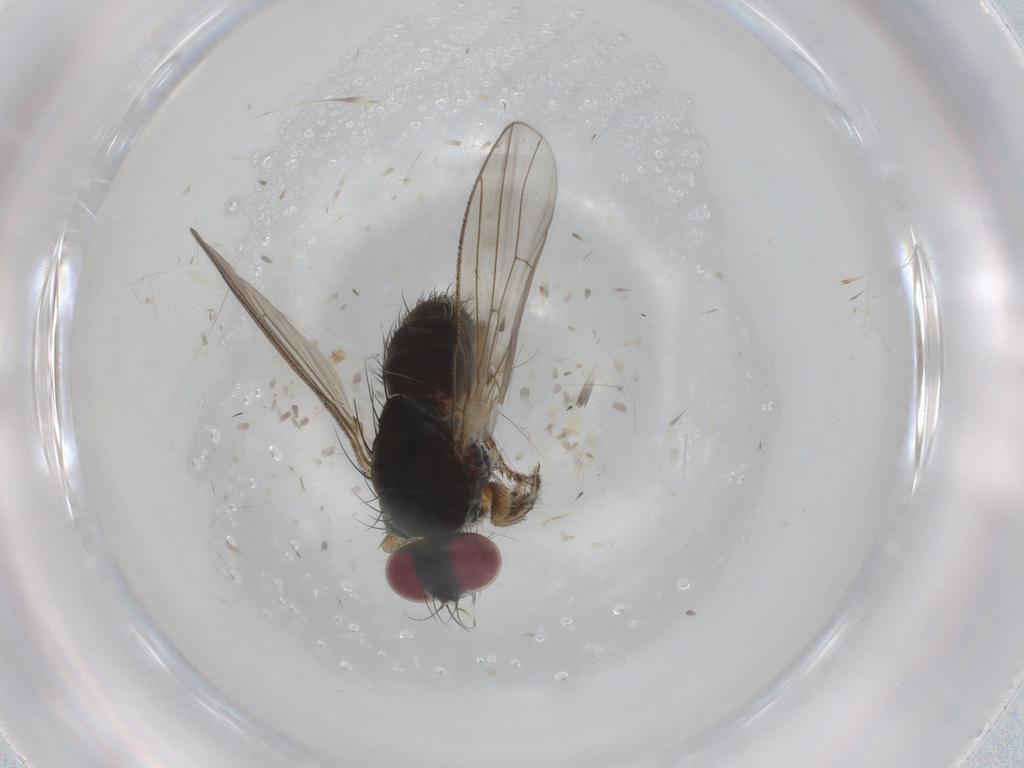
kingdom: Animalia
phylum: Arthropoda
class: Insecta
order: Diptera
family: Muscidae
